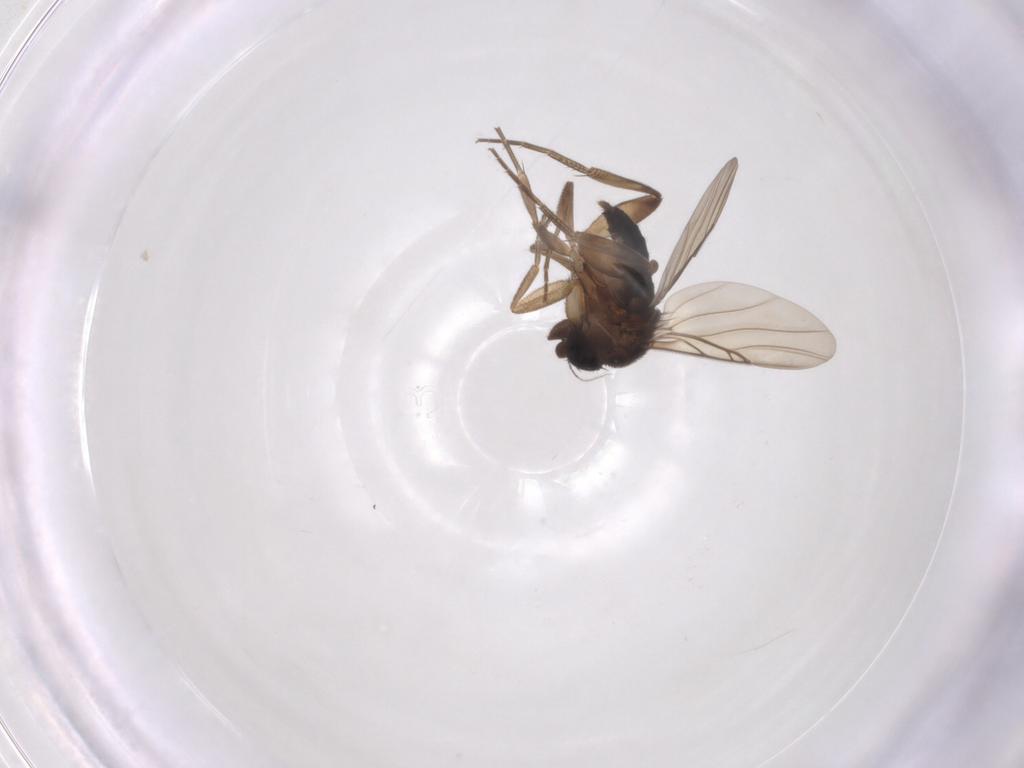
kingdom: Animalia
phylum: Arthropoda
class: Insecta
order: Diptera
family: Phoridae
